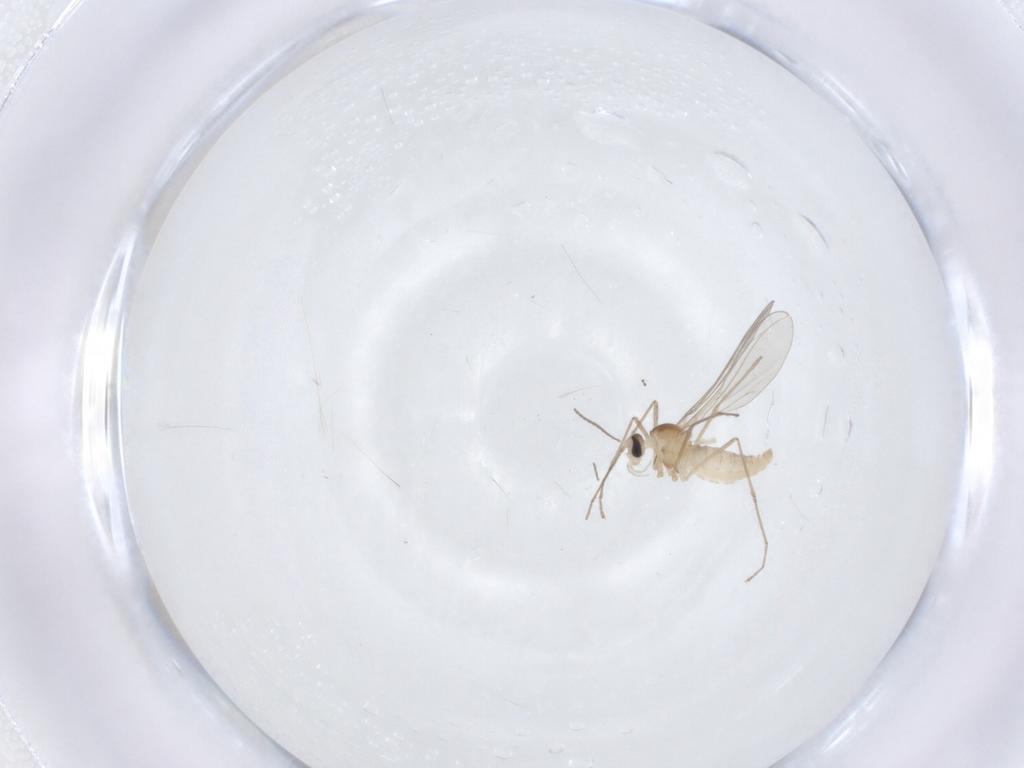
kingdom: Animalia
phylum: Arthropoda
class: Insecta
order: Diptera
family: Cecidomyiidae
